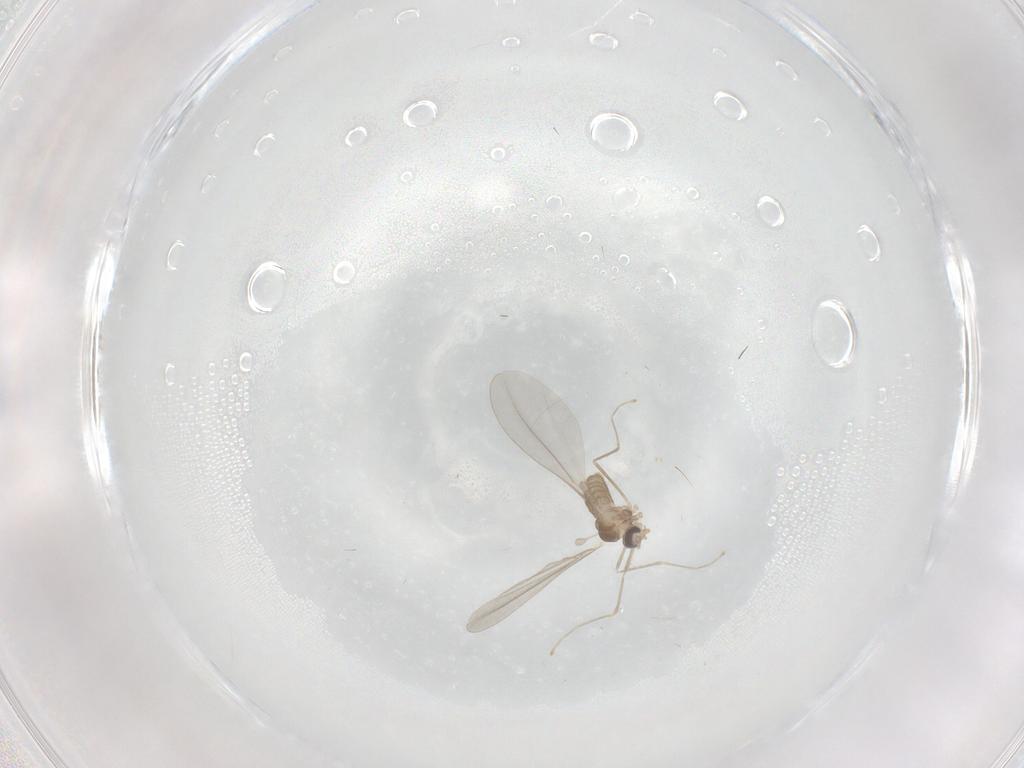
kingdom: Animalia
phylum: Arthropoda
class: Insecta
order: Diptera
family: Cecidomyiidae
